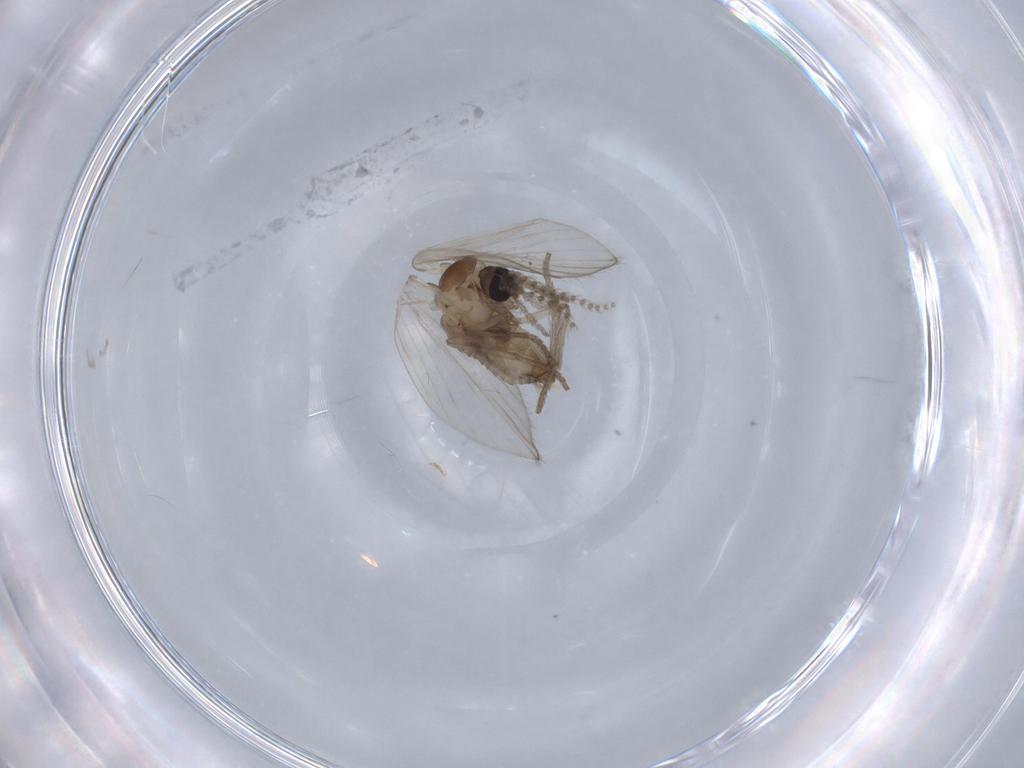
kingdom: Animalia
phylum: Arthropoda
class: Insecta
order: Diptera
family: Psychodidae
